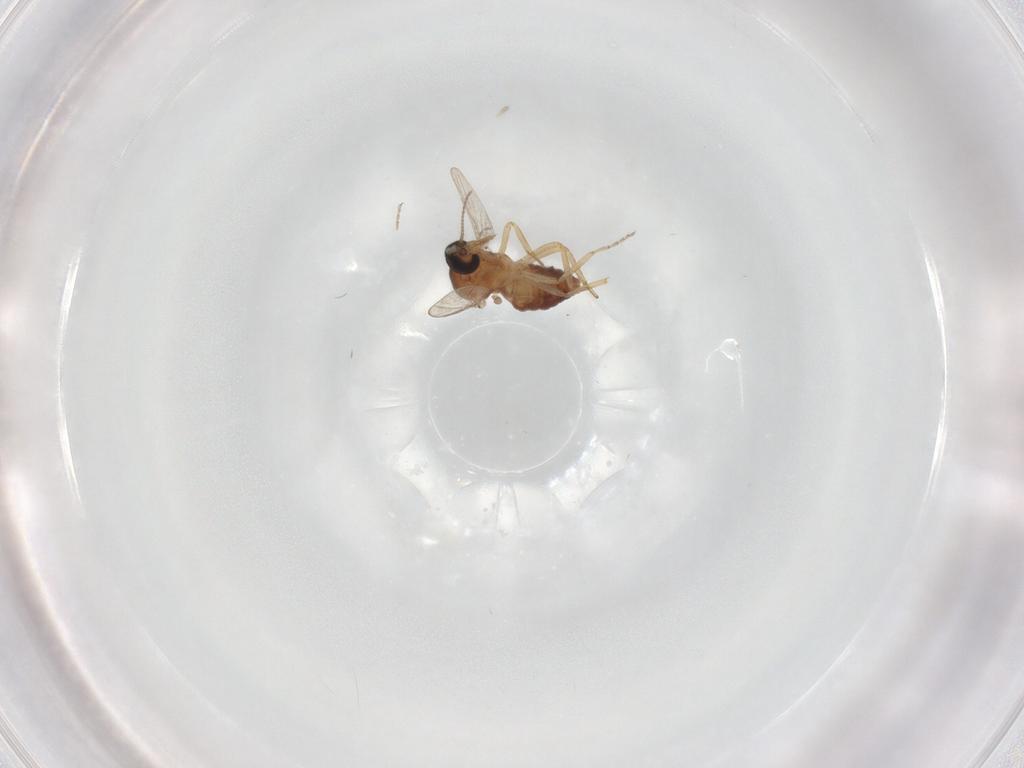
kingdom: Animalia
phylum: Arthropoda
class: Insecta
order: Diptera
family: Ceratopogonidae
